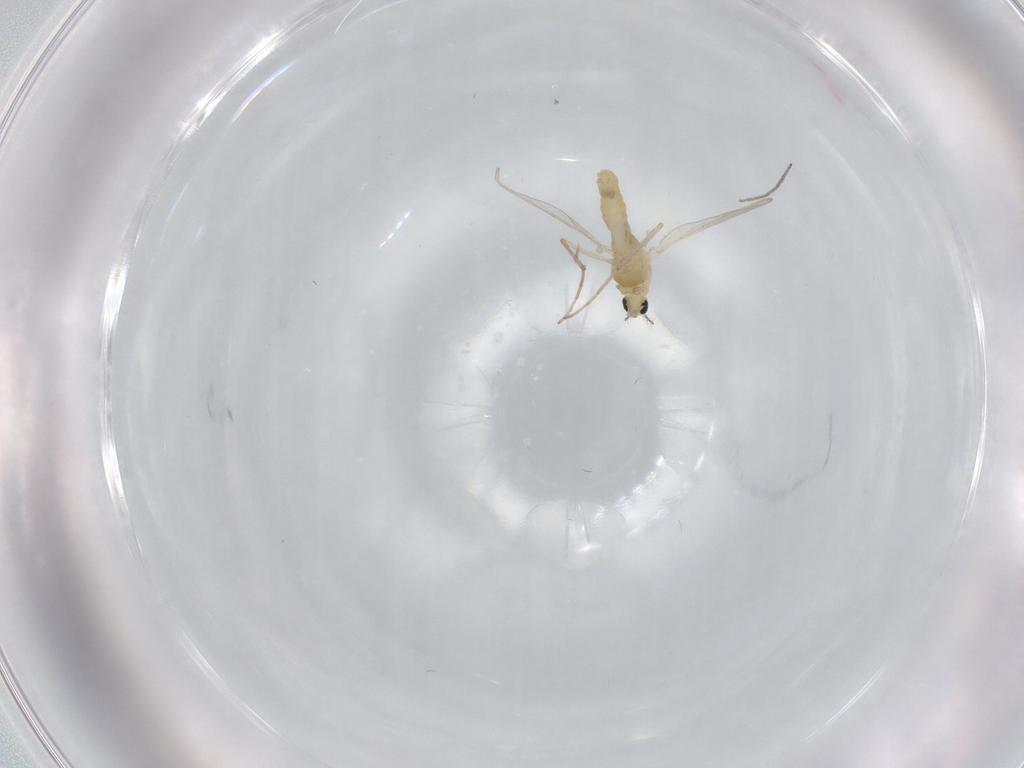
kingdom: Animalia
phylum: Arthropoda
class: Insecta
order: Diptera
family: Chironomidae
